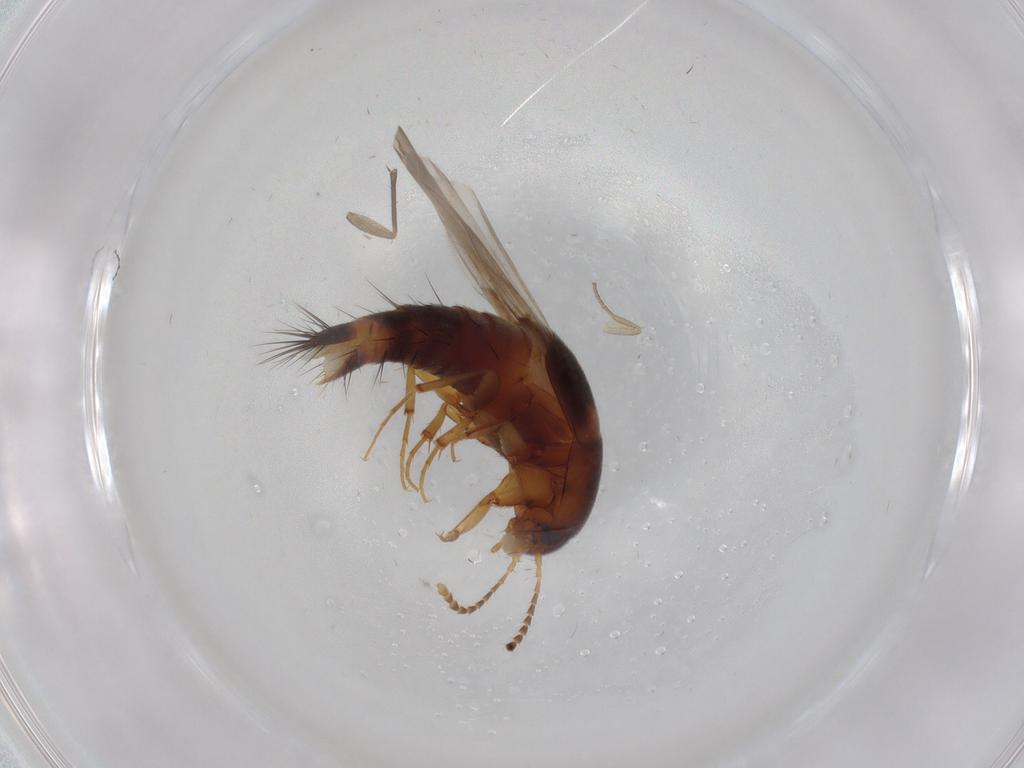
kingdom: Animalia
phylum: Arthropoda
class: Insecta
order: Coleoptera
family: Staphylinidae
